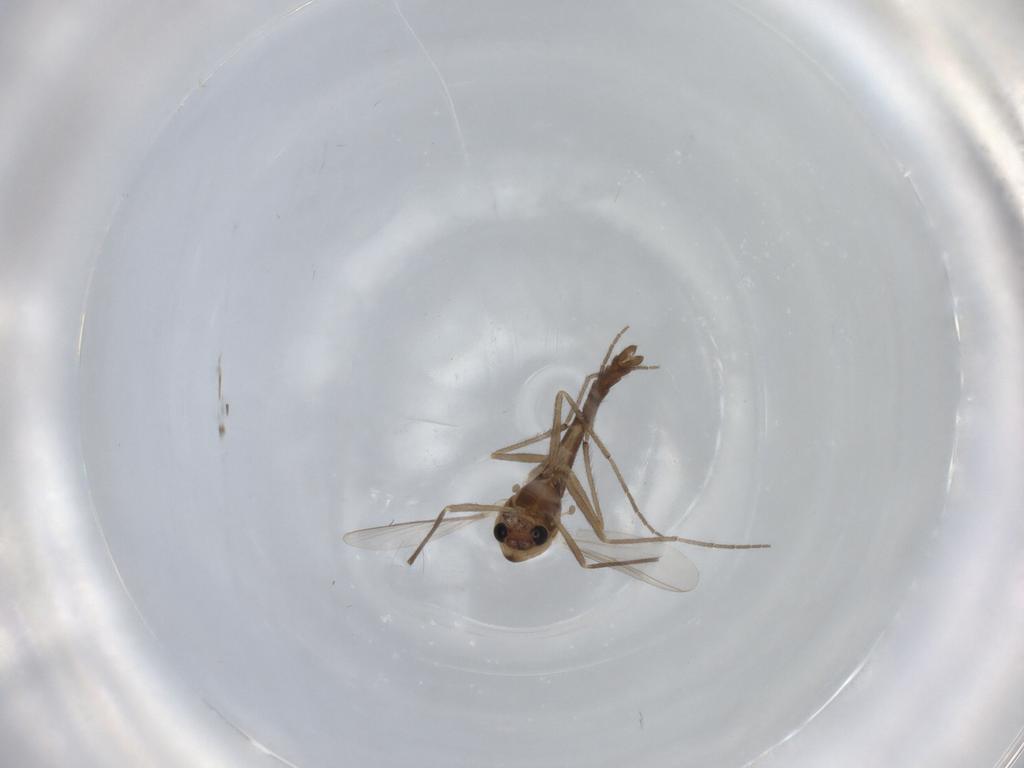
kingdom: Animalia
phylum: Arthropoda
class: Insecta
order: Diptera
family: Chironomidae
